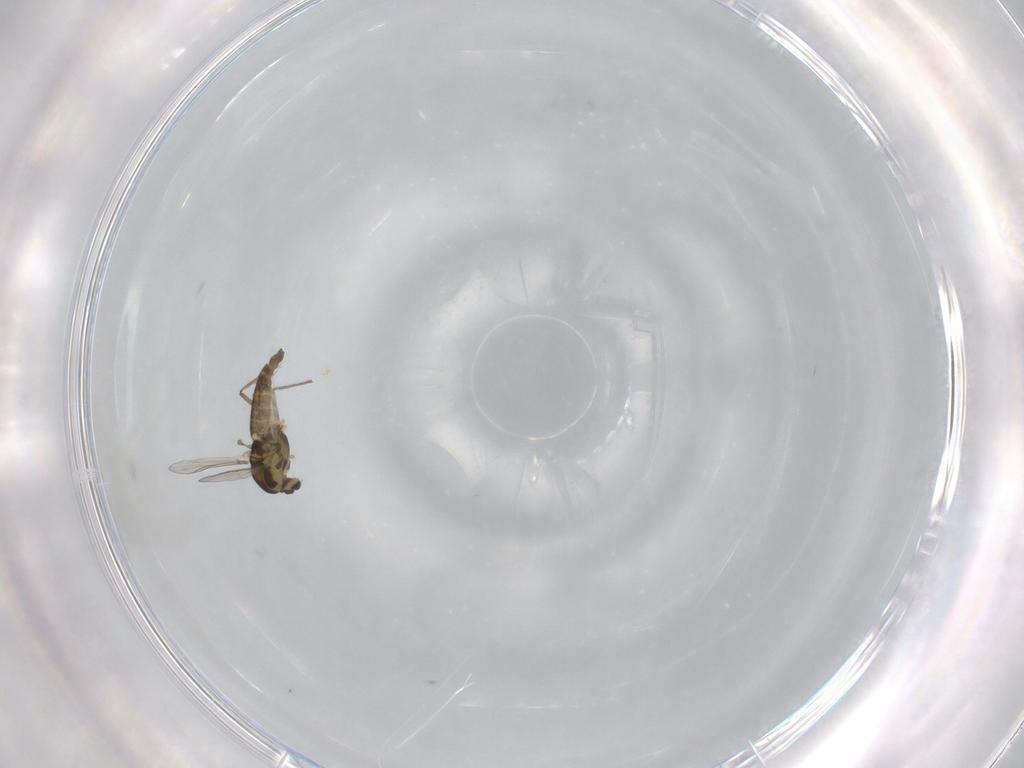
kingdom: Animalia
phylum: Arthropoda
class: Insecta
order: Diptera
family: Chironomidae
